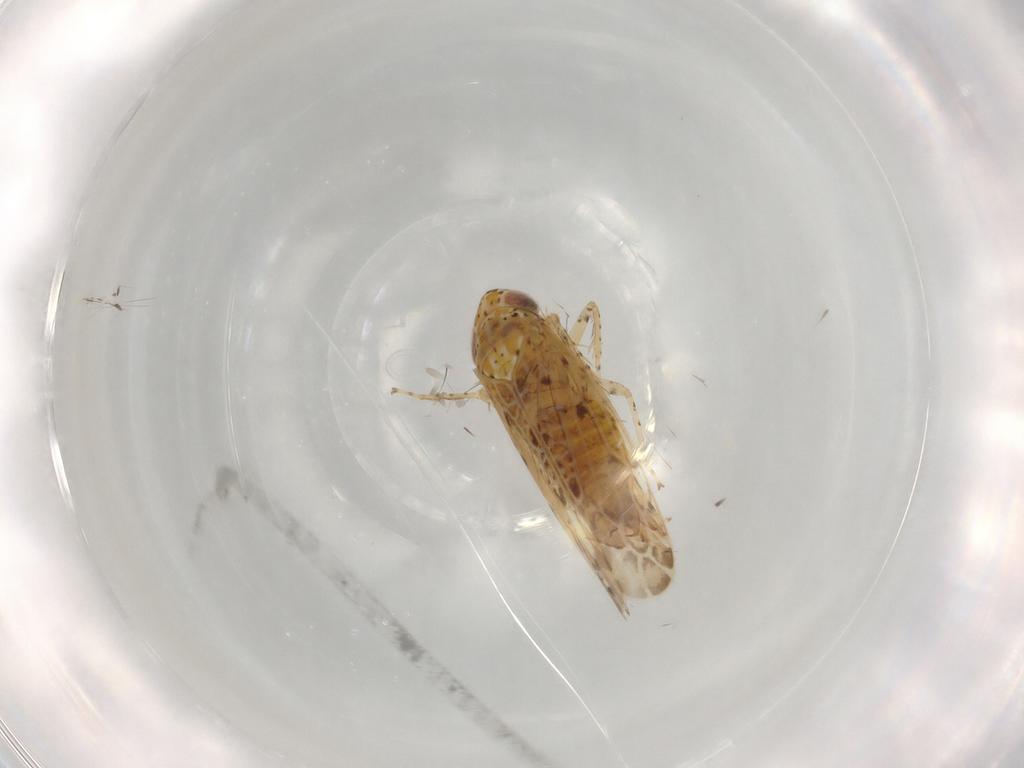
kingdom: Animalia
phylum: Arthropoda
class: Insecta
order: Hemiptera
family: Cicadellidae
